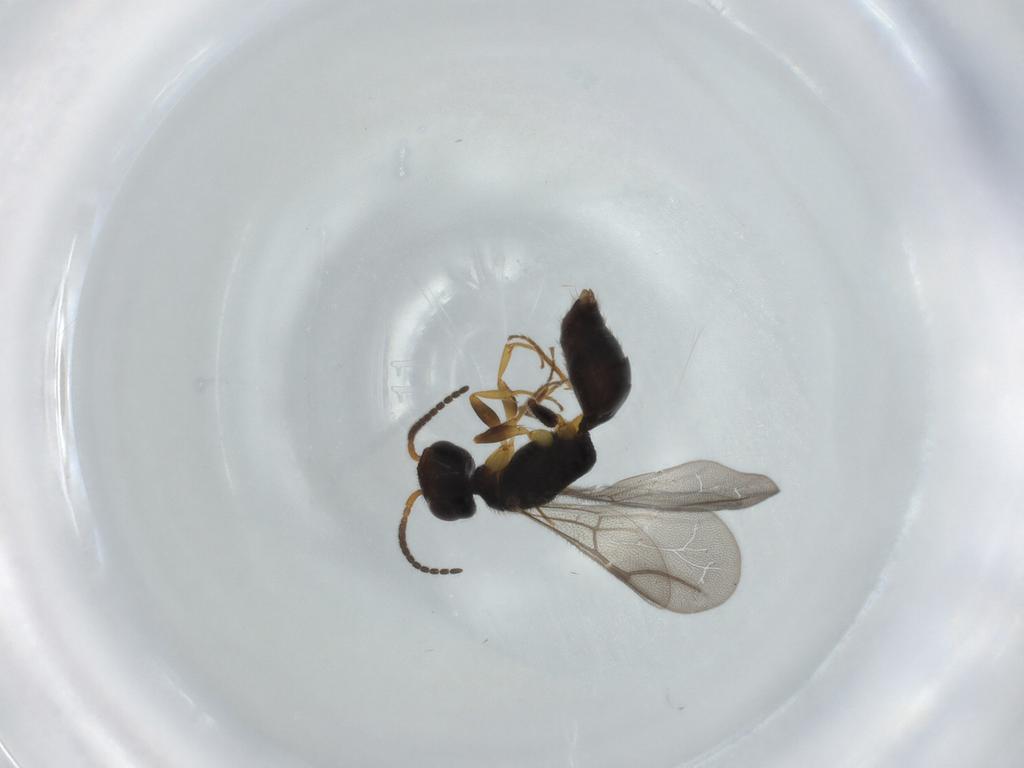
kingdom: Animalia
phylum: Arthropoda
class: Insecta
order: Hymenoptera
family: Bethylidae
